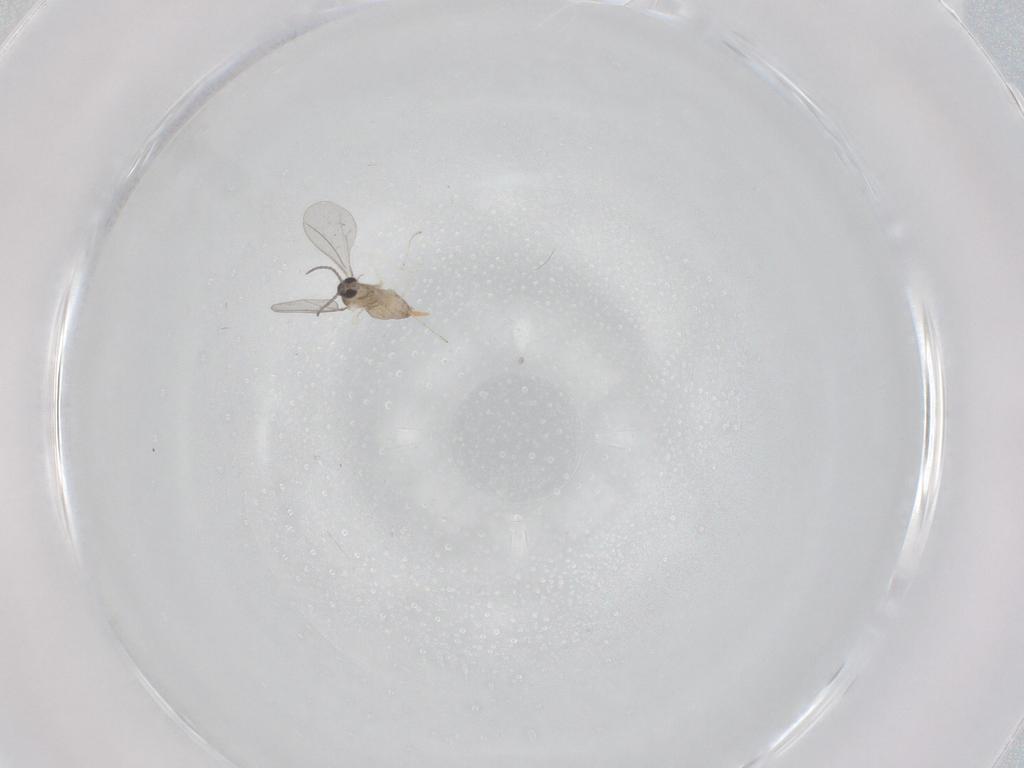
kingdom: Animalia
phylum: Arthropoda
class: Insecta
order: Diptera
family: Cecidomyiidae
